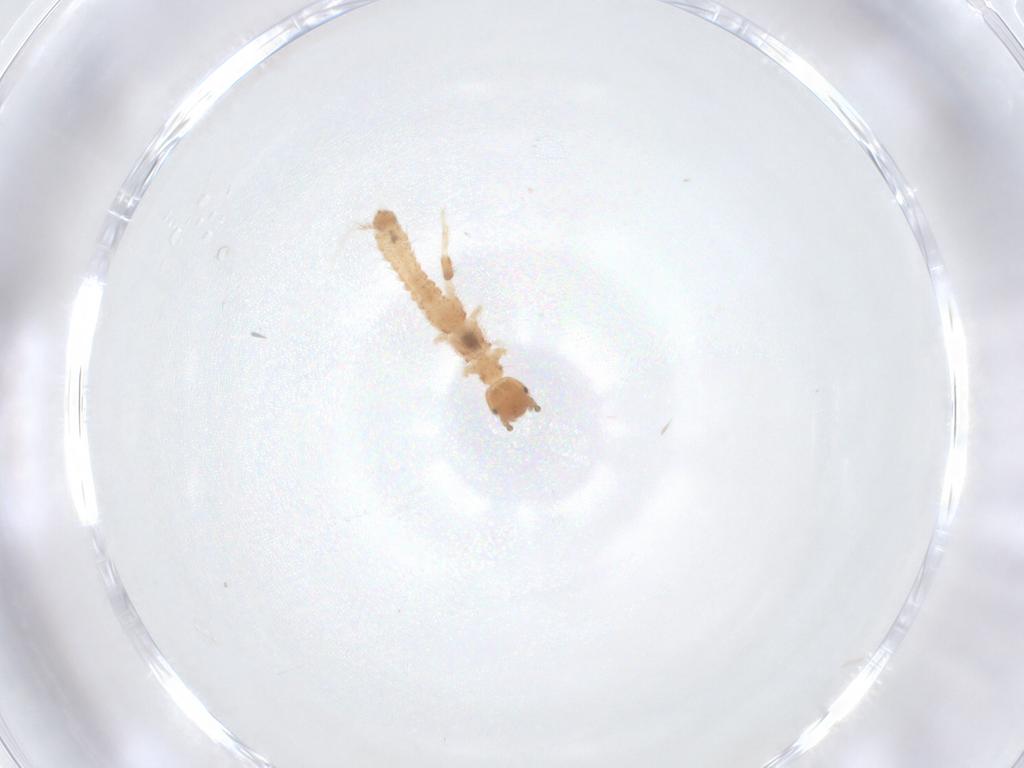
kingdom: Animalia
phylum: Arthropoda
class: Insecta
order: Embioptera
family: Anisembiidae
